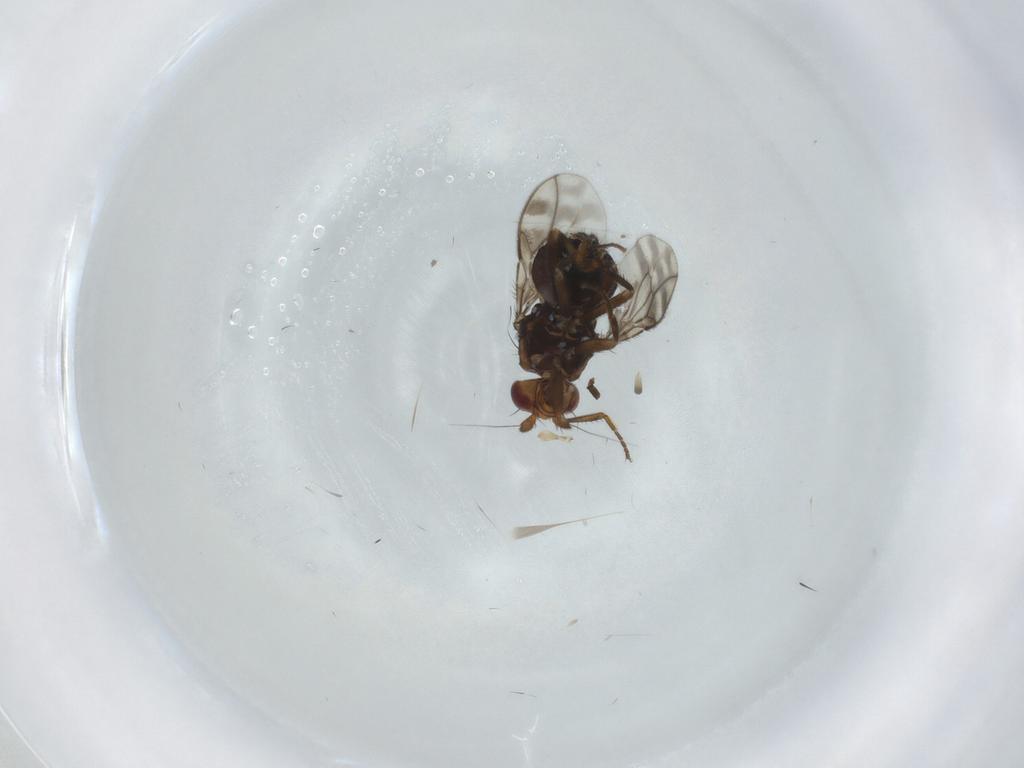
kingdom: Animalia
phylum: Arthropoda
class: Insecta
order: Diptera
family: Sphaeroceridae
